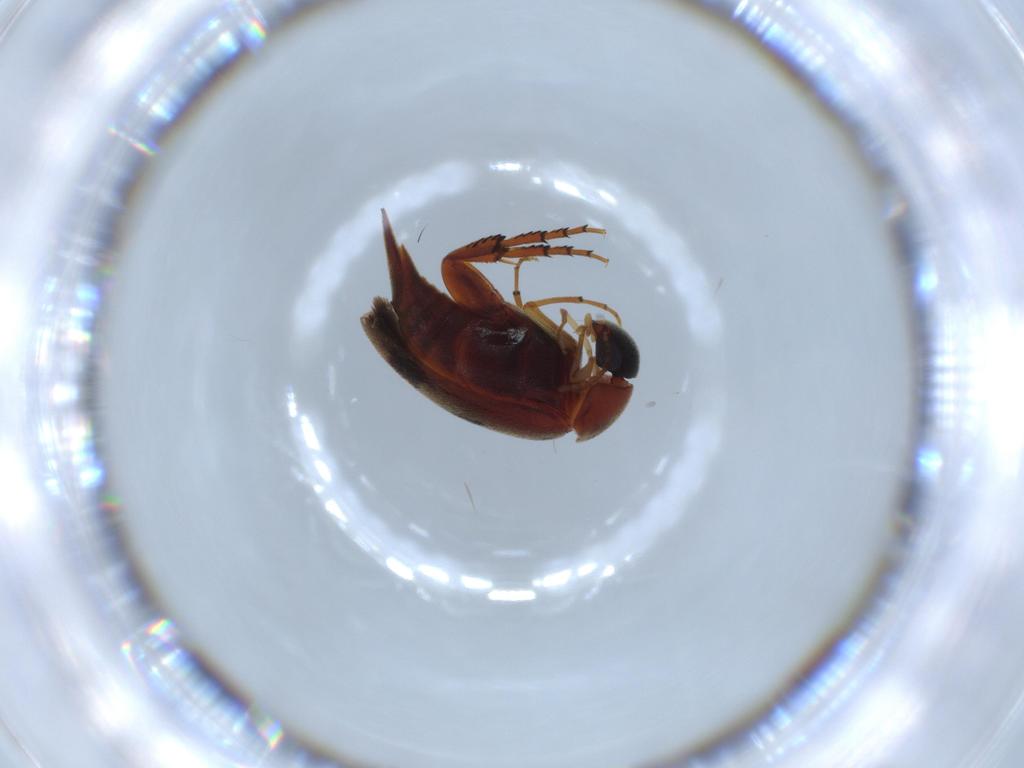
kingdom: Animalia
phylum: Arthropoda
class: Insecta
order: Coleoptera
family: Mordellidae
